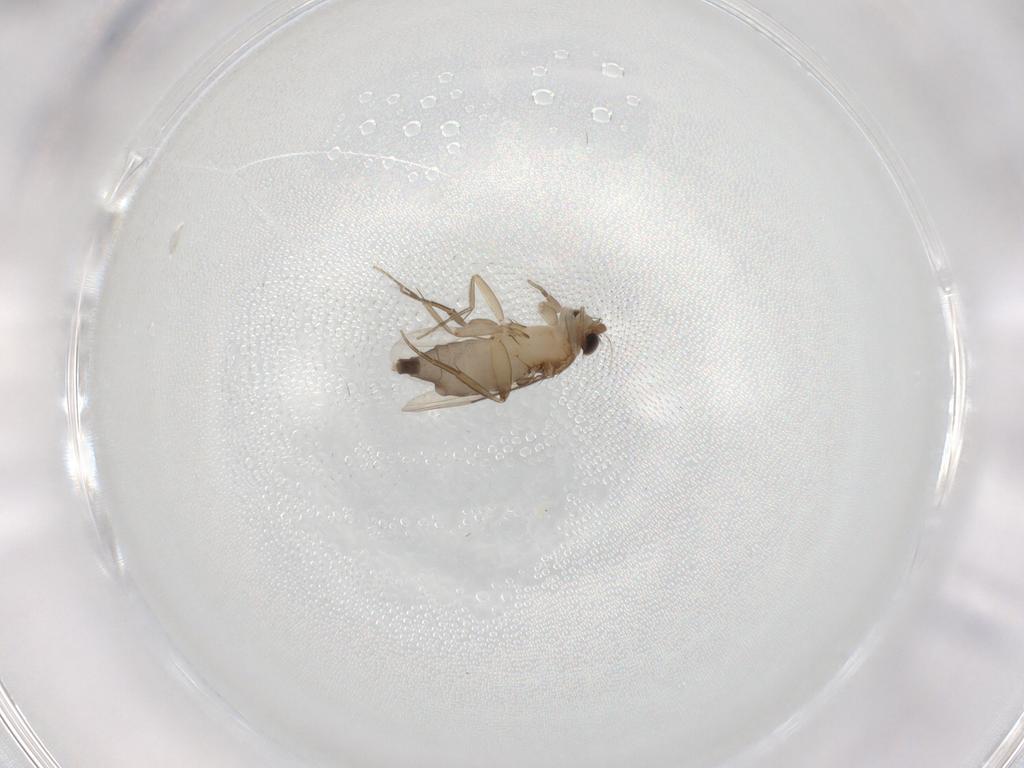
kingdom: Animalia
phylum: Arthropoda
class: Insecta
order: Diptera
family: Phoridae
